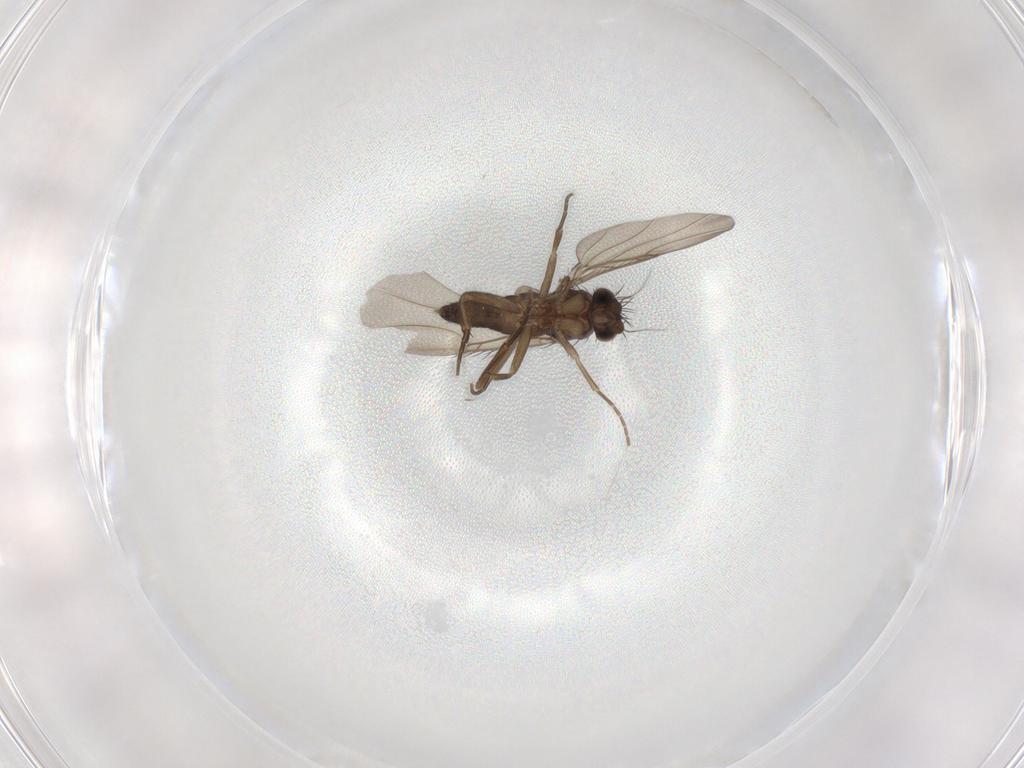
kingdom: Animalia
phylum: Arthropoda
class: Insecta
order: Diptera
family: Phoridae
